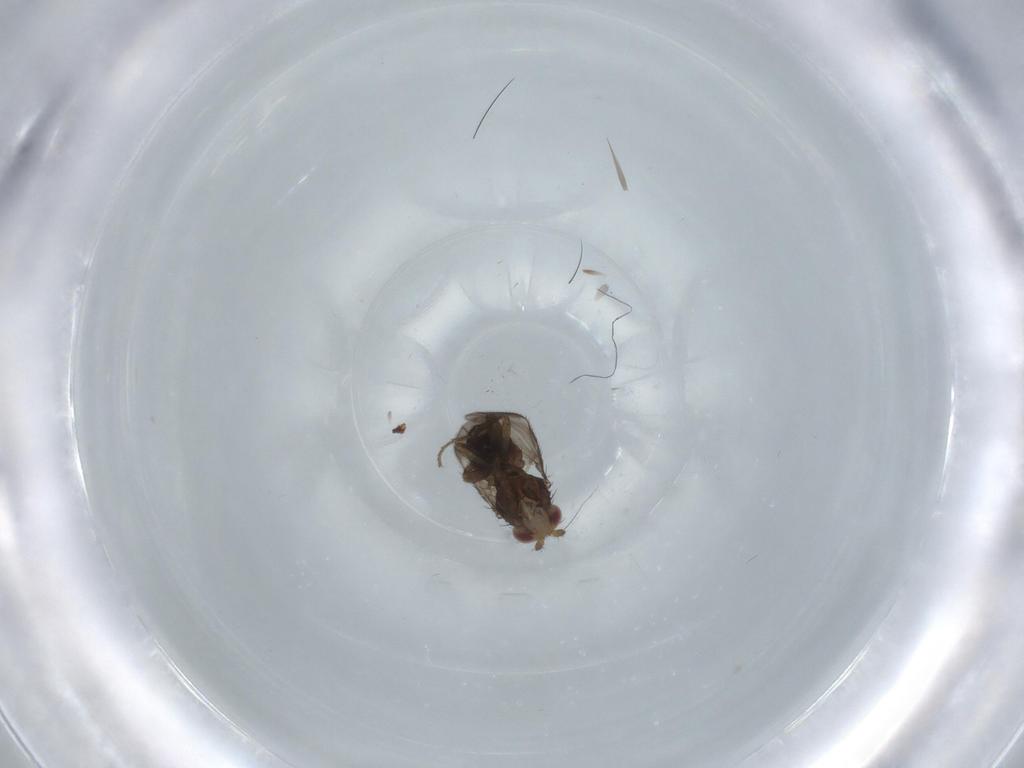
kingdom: Animalia
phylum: Arthropoda
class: Insecta
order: Diptera
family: Sphaeroceridae
